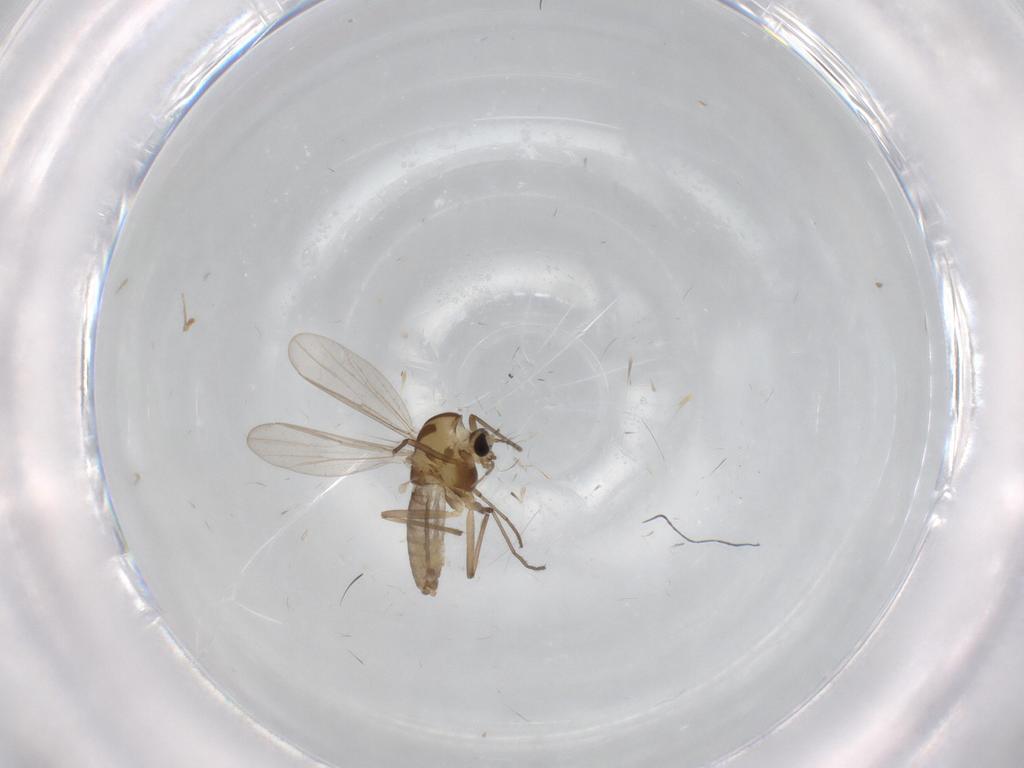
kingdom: Animalia
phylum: Arthropoda
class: Insecta
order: Diptera
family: Chironomidae
